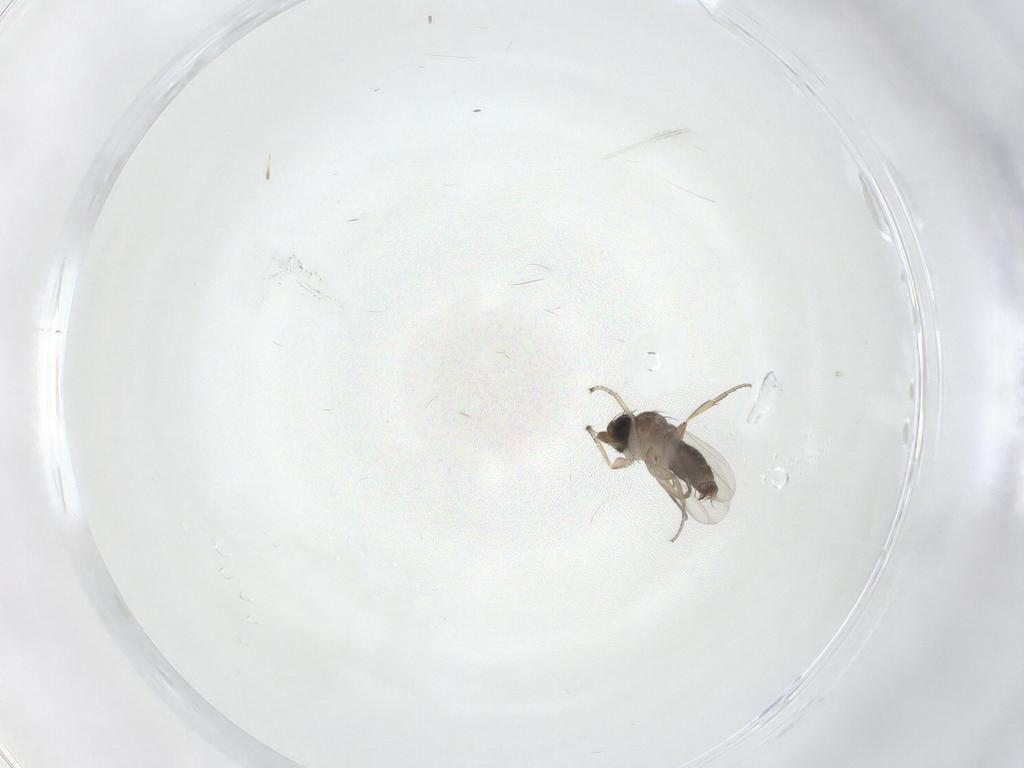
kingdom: Animalia
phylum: Arthropoda
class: Insecta
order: Diptera
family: Phoridae
